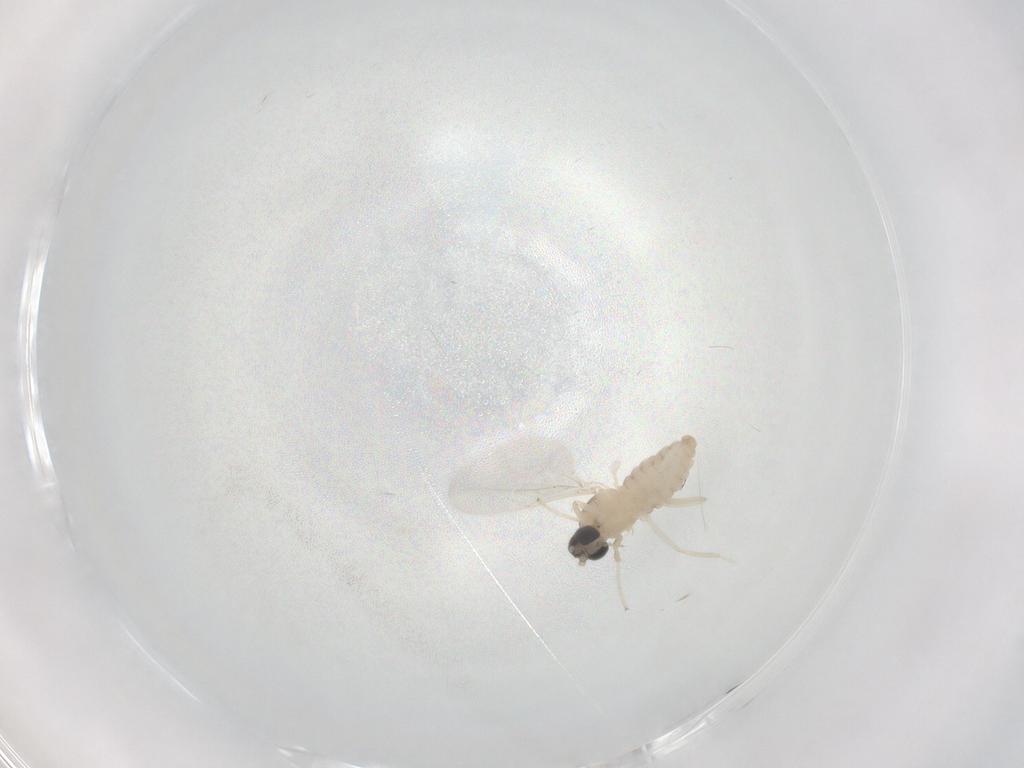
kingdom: Animalia
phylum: Arthropoda
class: Insecta
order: Diptera
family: Cecidomyiidae
